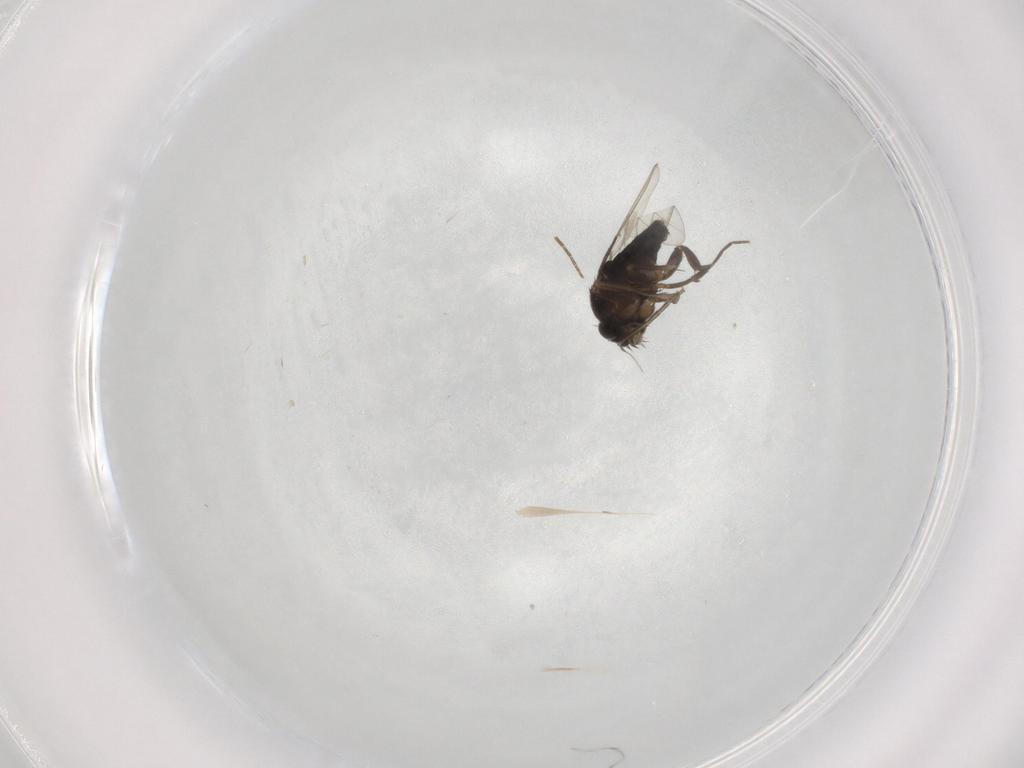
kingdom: Animalia
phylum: Arthropoda
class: Insecta
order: Diptera
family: Phoridae
